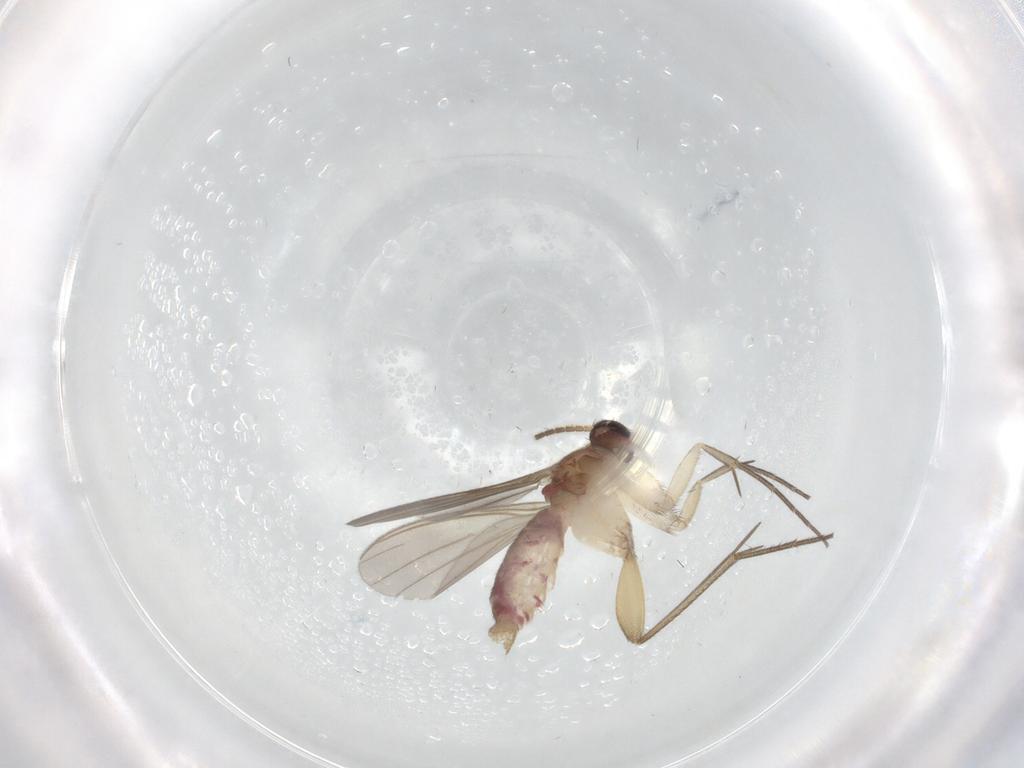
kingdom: Animalia
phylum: Arthropoda
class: Insecta
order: Diptera
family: Mycetophilidae
